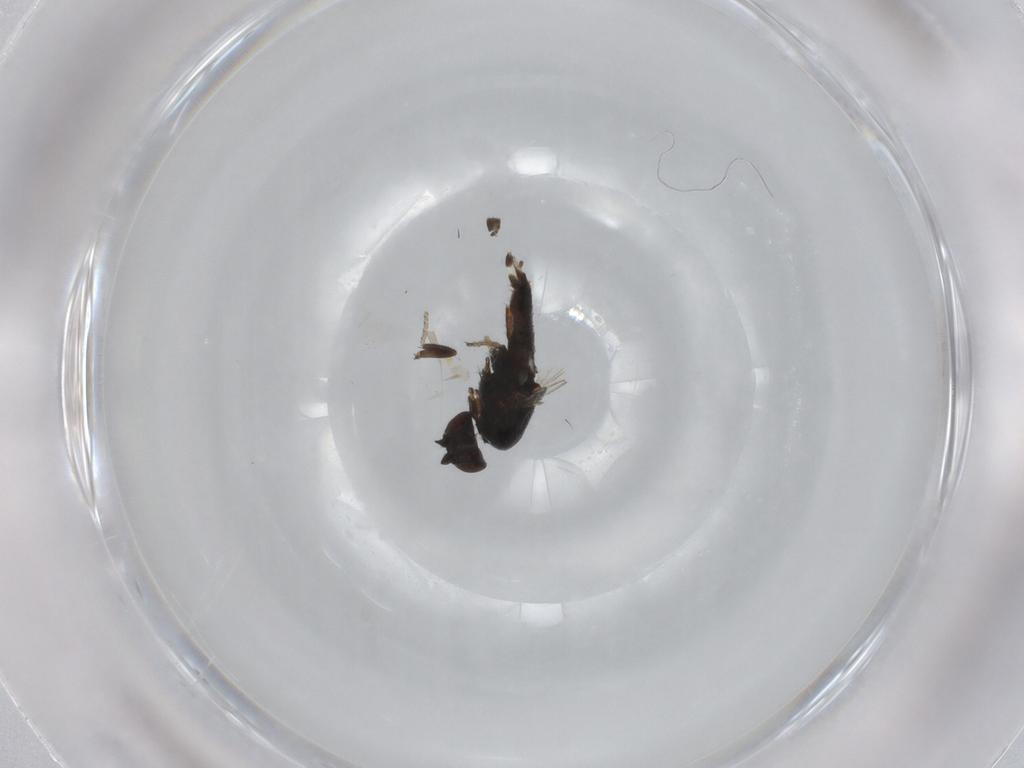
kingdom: Animalia
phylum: Arthropoda
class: Insecta
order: Diptera
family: Milichiidae
